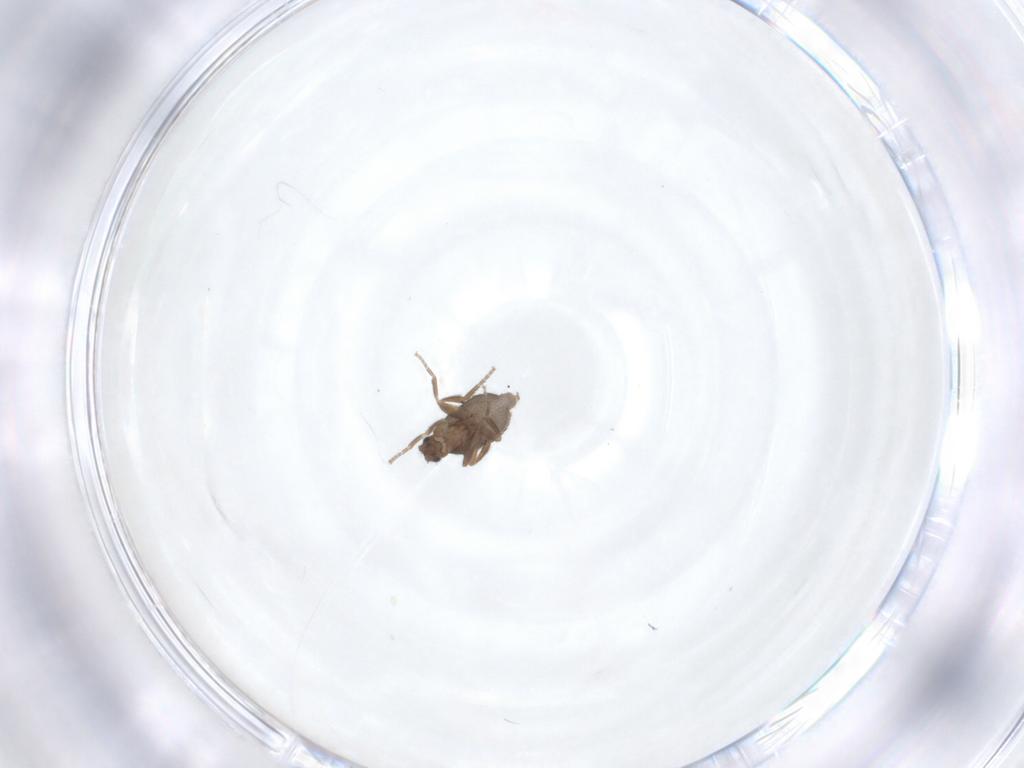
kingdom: Animalia
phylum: Arthropoda
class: Insecta
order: Diptera
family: Phoridae
